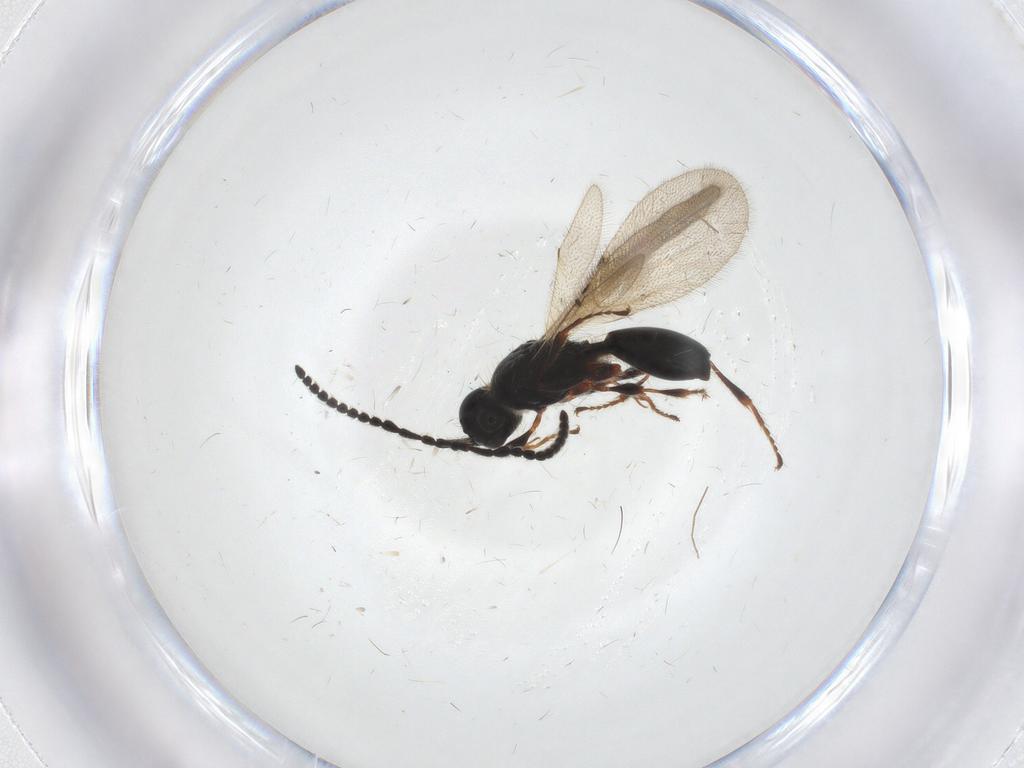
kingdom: Animalia
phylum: Arthropoda
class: Insecta
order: Hymenoptera
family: Diapriidae
